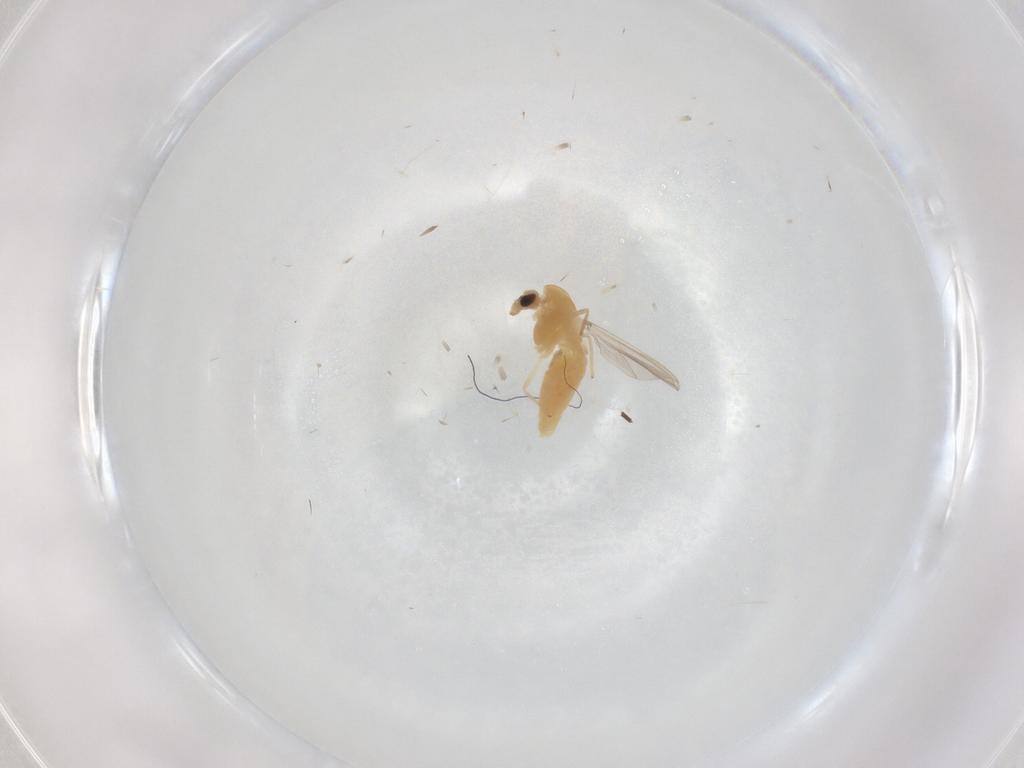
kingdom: Animalia
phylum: Arthropoda
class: Insecta
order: Diptera
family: Chironomidae
